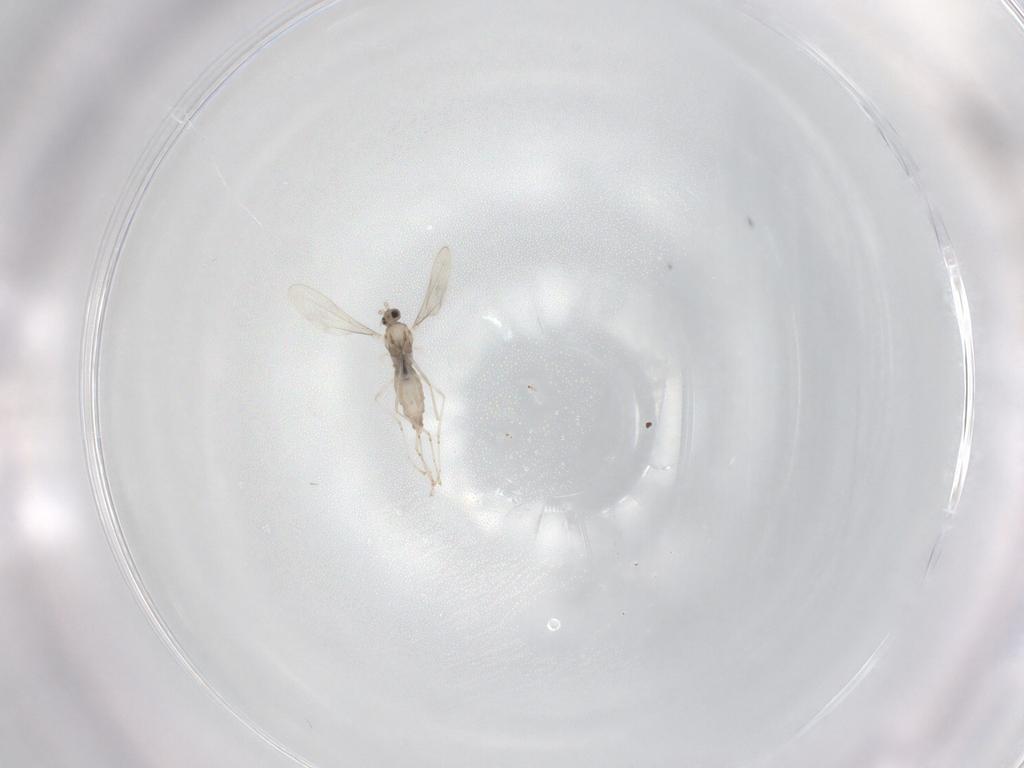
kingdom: Animalia
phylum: Arthropoda
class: Insecta
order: Diptera
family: Cecidomyiidae
